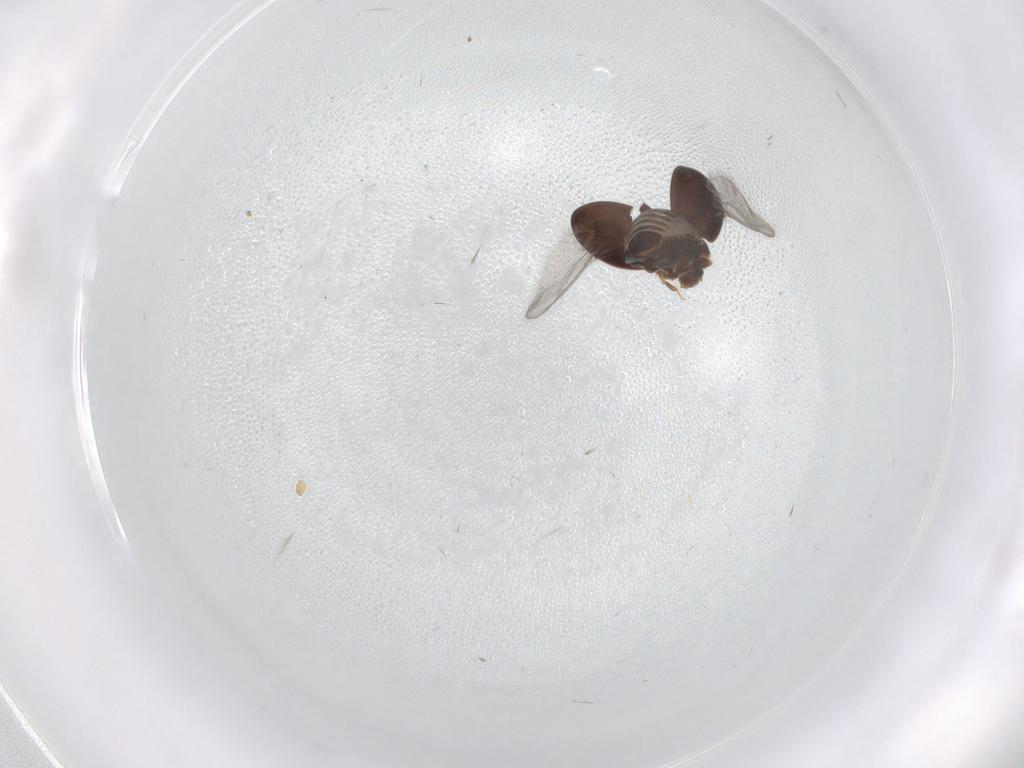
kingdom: Animalia
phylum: Arthropoda
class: Insecta
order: Coleoptera
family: Corylophidae
